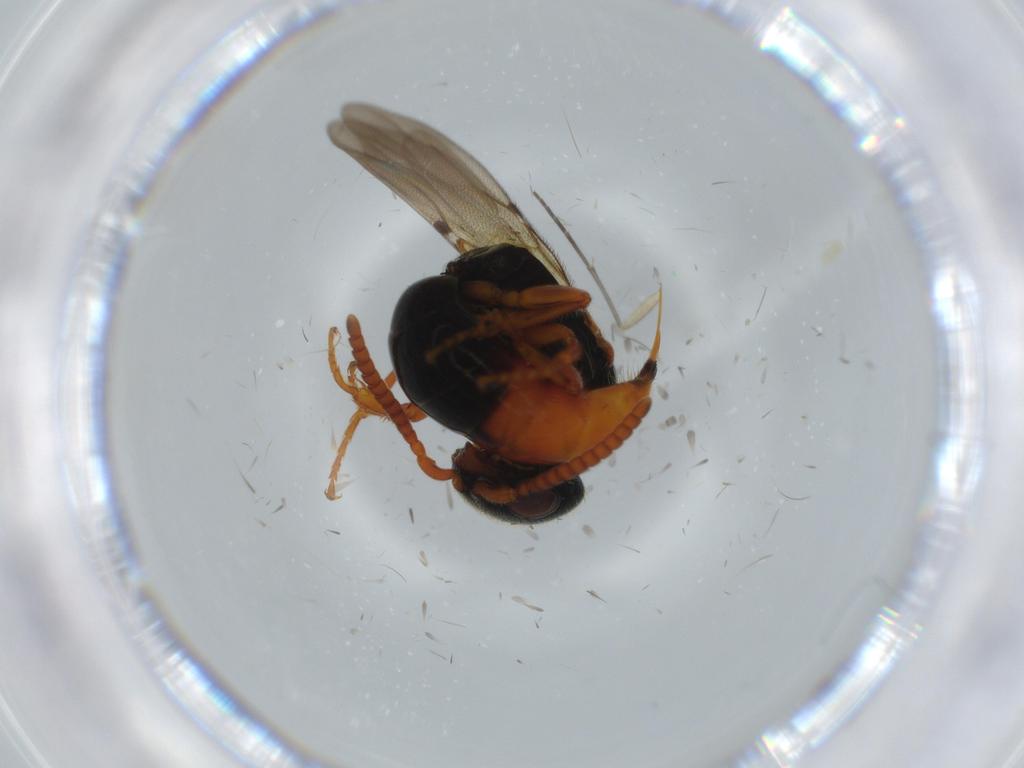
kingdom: Animalia
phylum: Arthropoda
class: Insecta
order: Hymenoptera
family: Bethylidae
